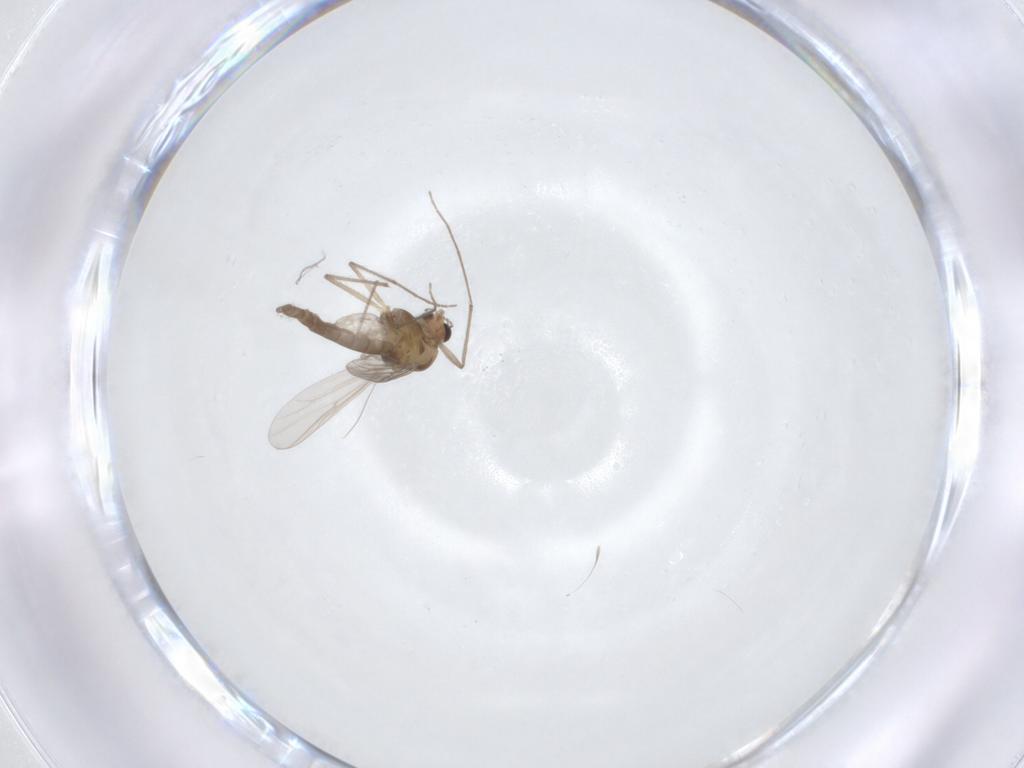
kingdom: Animalia
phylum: Arthropoda
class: Insecta
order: Diptera
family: Chironomidae
